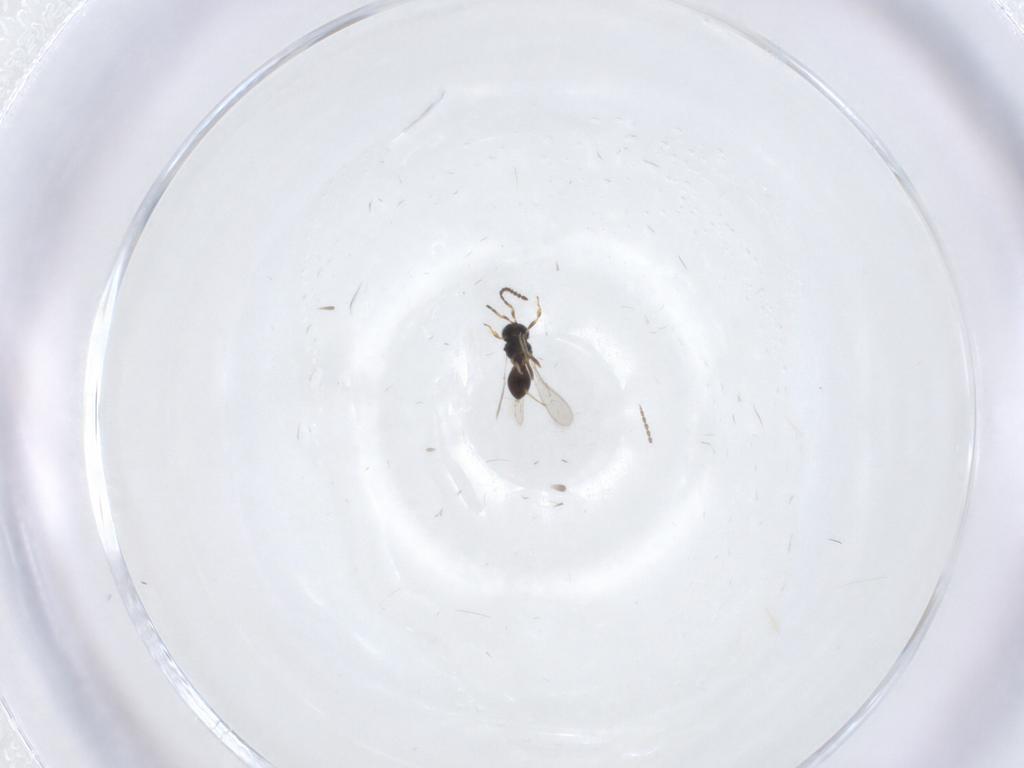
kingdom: Animalia
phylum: Arthropoda
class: Insecta
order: Hymenoptera
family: Scelionidae
